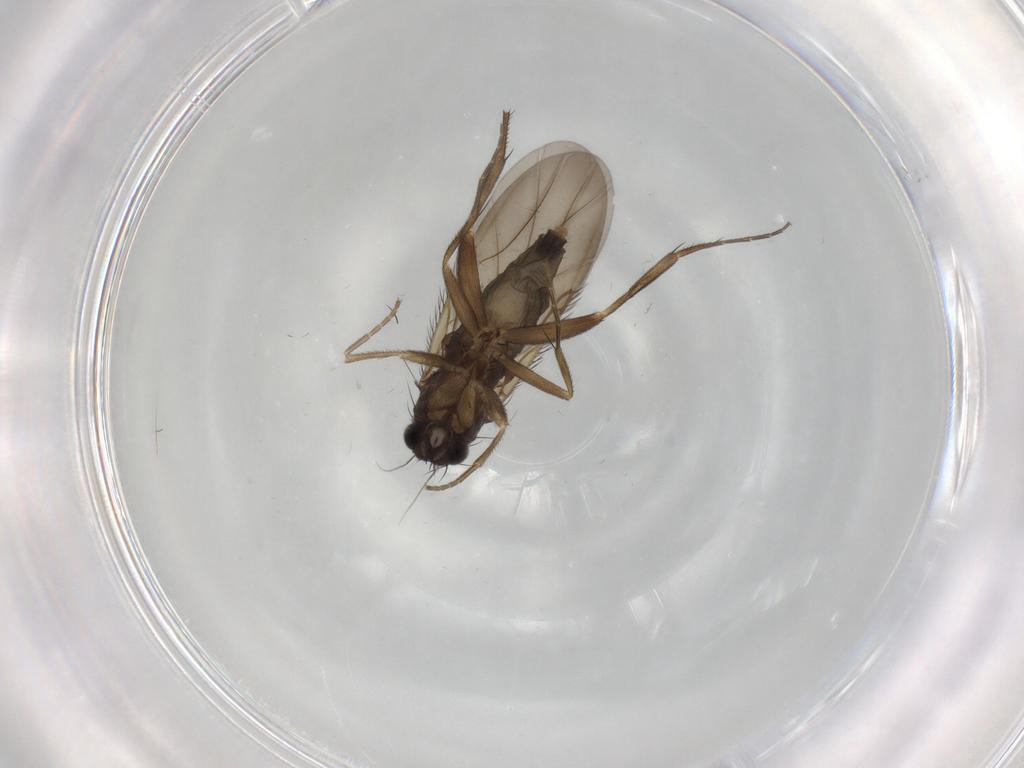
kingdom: Animalia
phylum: Arthropoda
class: Insecta
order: Diptera
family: Phoridae
